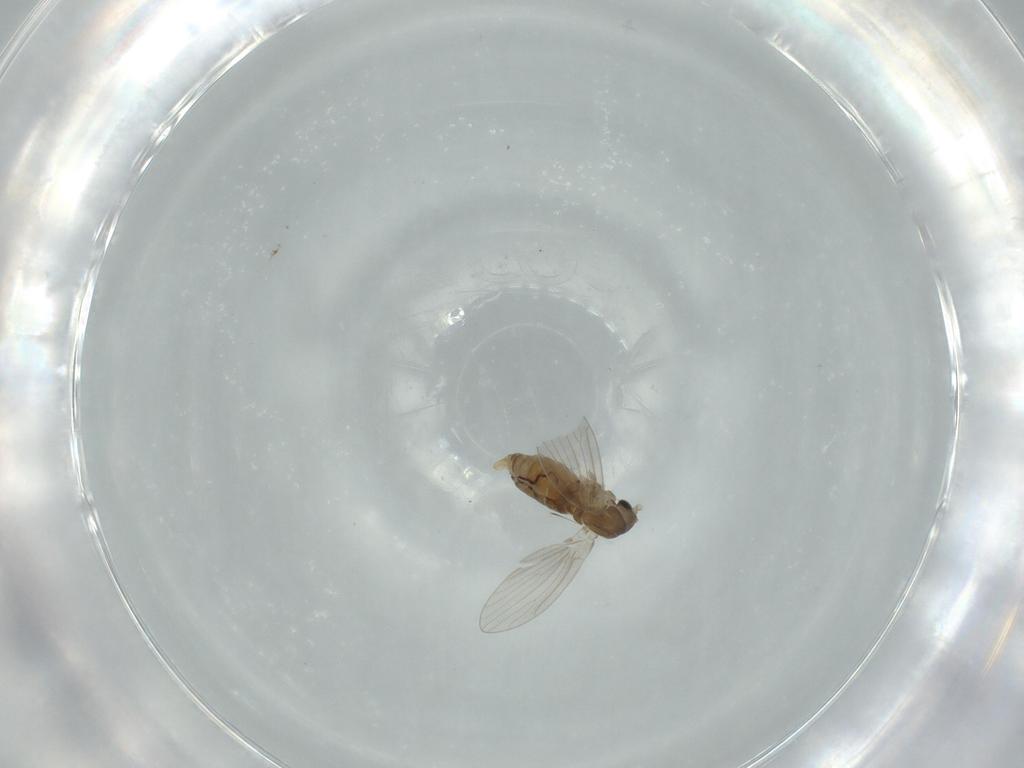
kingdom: Animalia
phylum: Arthropoda
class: Insecta
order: Diptera
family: Psychodidae
